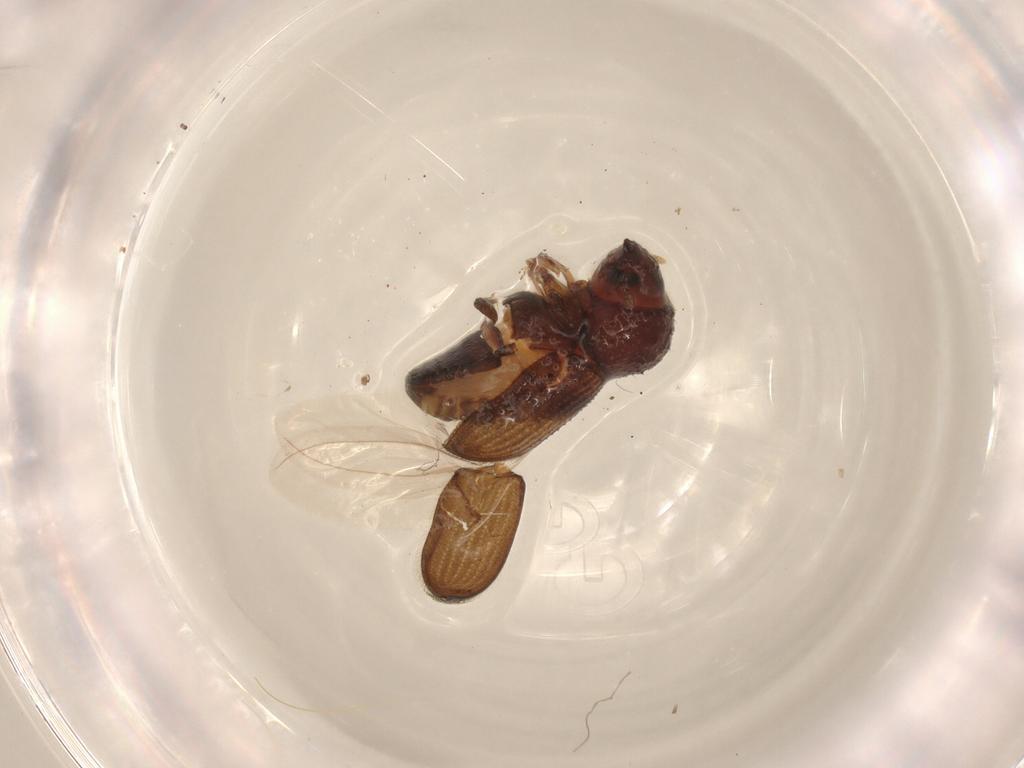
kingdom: Animalia
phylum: Arthropoda
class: Insecta
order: Coleoptera
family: Curculionidae
